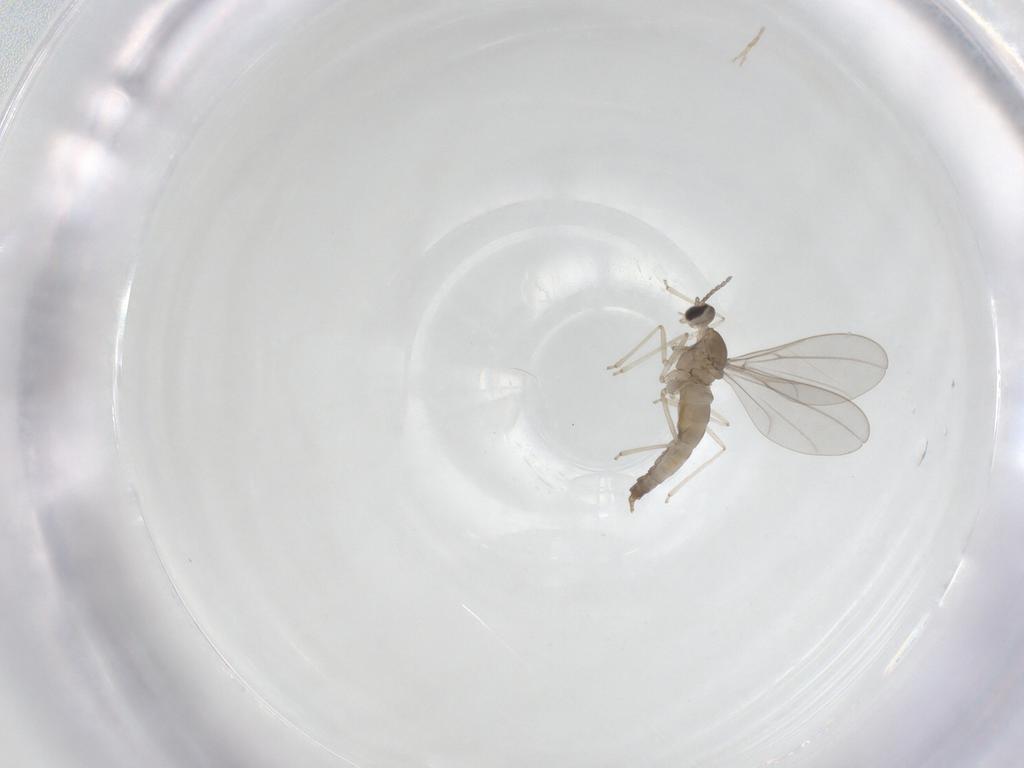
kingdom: Animalia
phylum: Arthropoda
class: Insecta
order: Diptera
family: Cecidomyiidae
